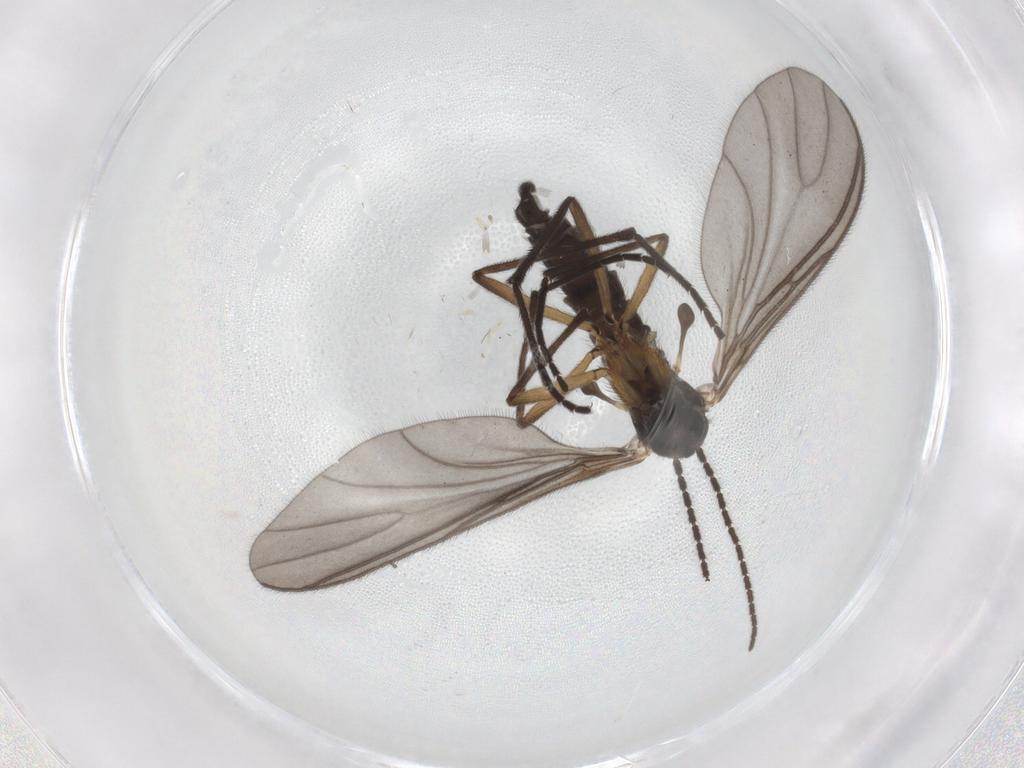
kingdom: Animalia
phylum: Arthropoda
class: Insecta
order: Diptera
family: Sciaridae
